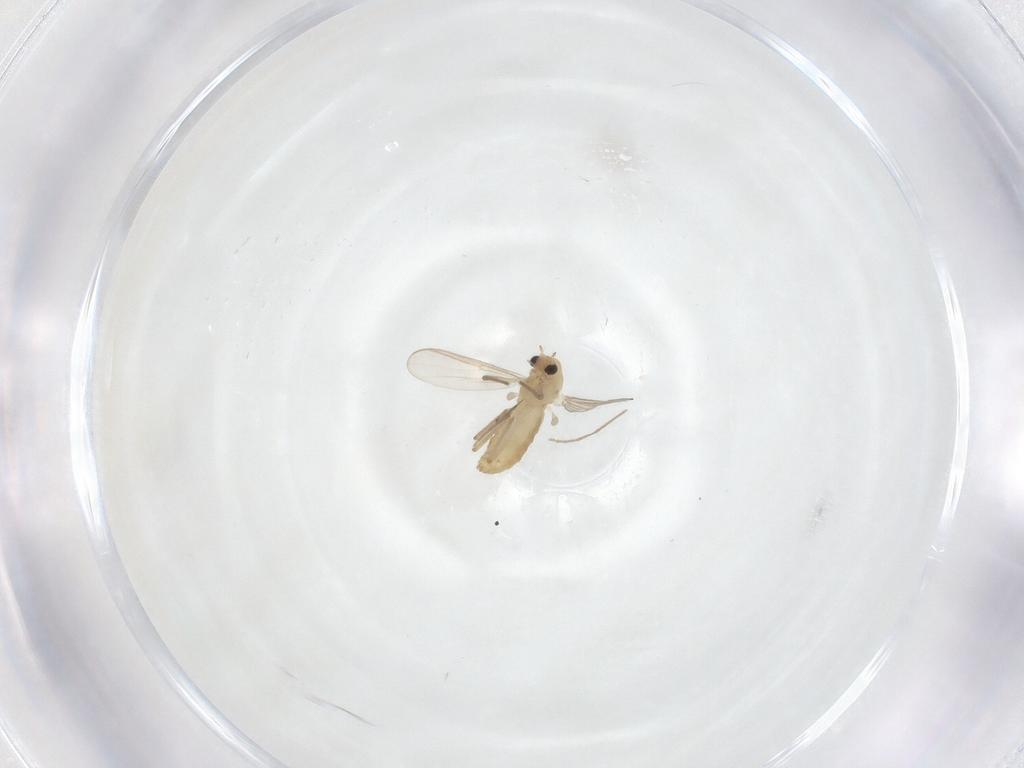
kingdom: Animalia
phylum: Arthropoda
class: Insecta
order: Diptera
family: Chironomidae
